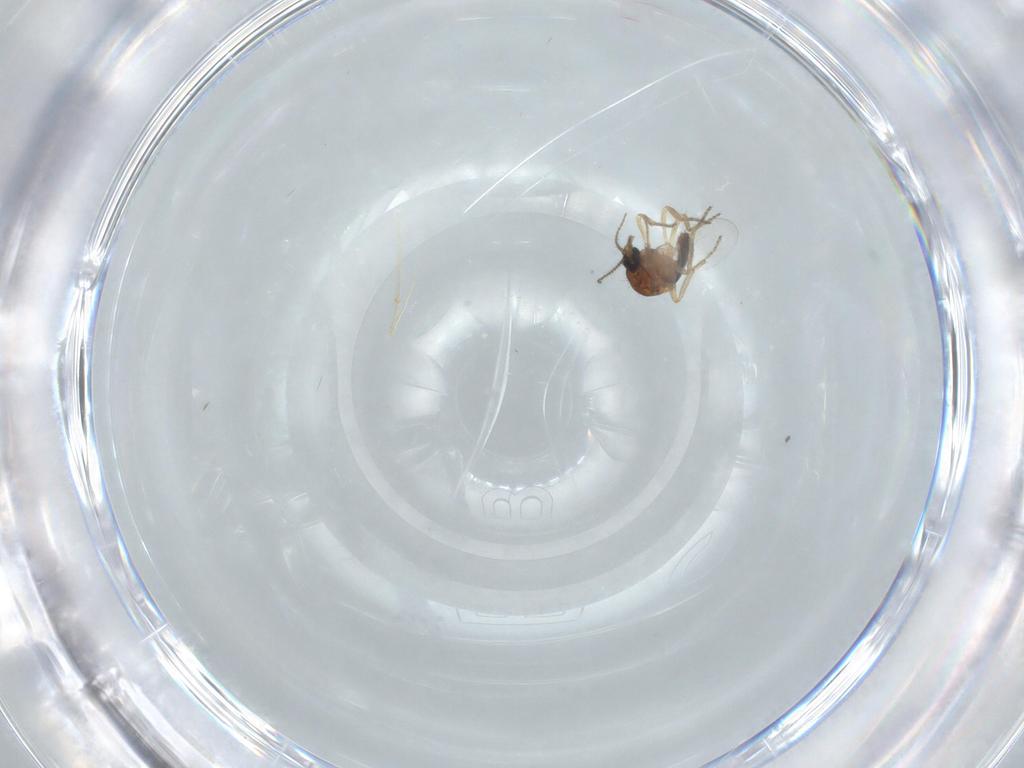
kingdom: Animalia
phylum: Arthropoda
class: Insecta
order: Diptera
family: Ceratopogonidae
